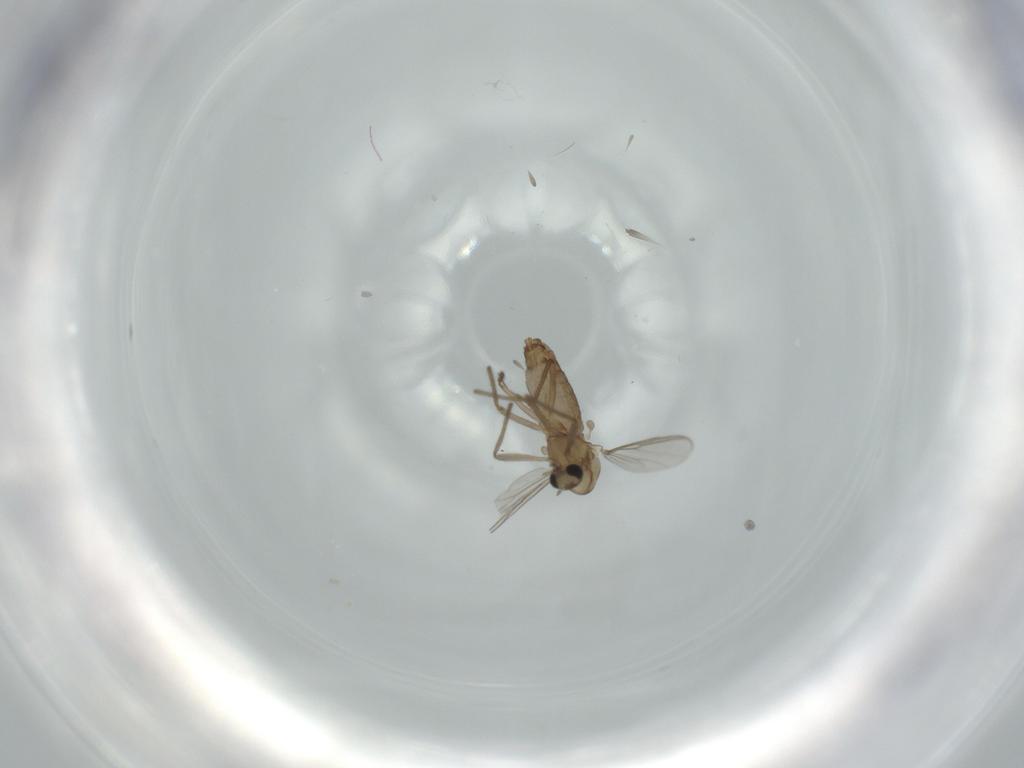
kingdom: Animalia
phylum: Arthropoda
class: Insecta
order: Diptera
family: Chironomidae
